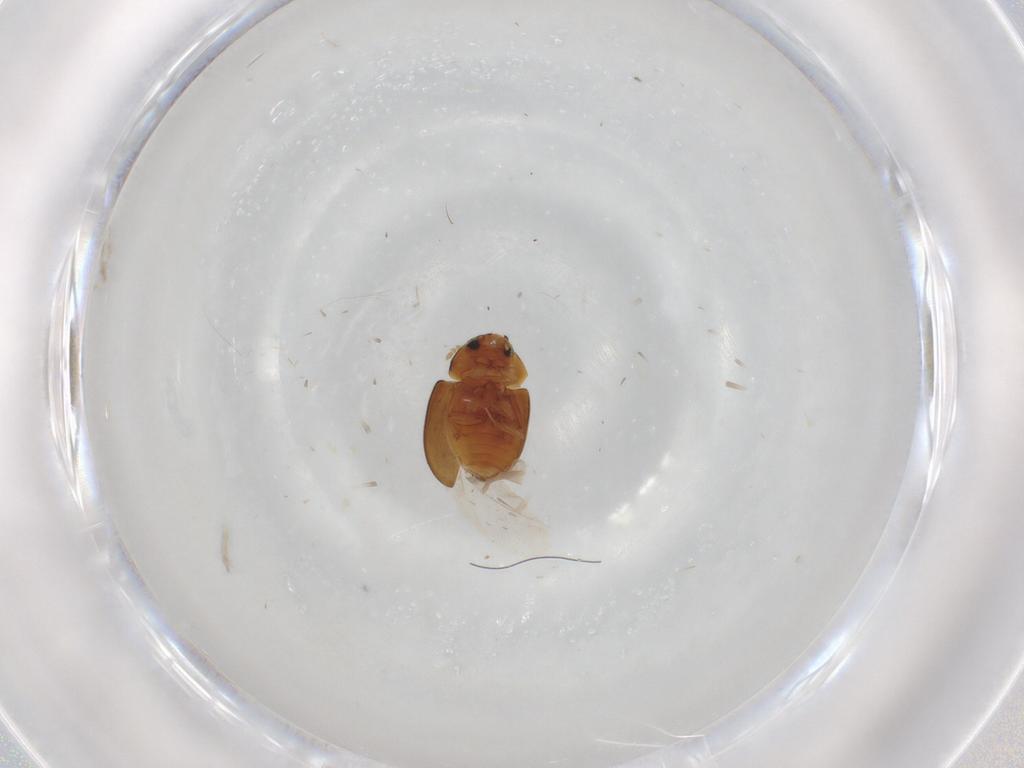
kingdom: Animalia
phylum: Arthropoda
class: Insecta
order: Coleoptera
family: Phalacridae
